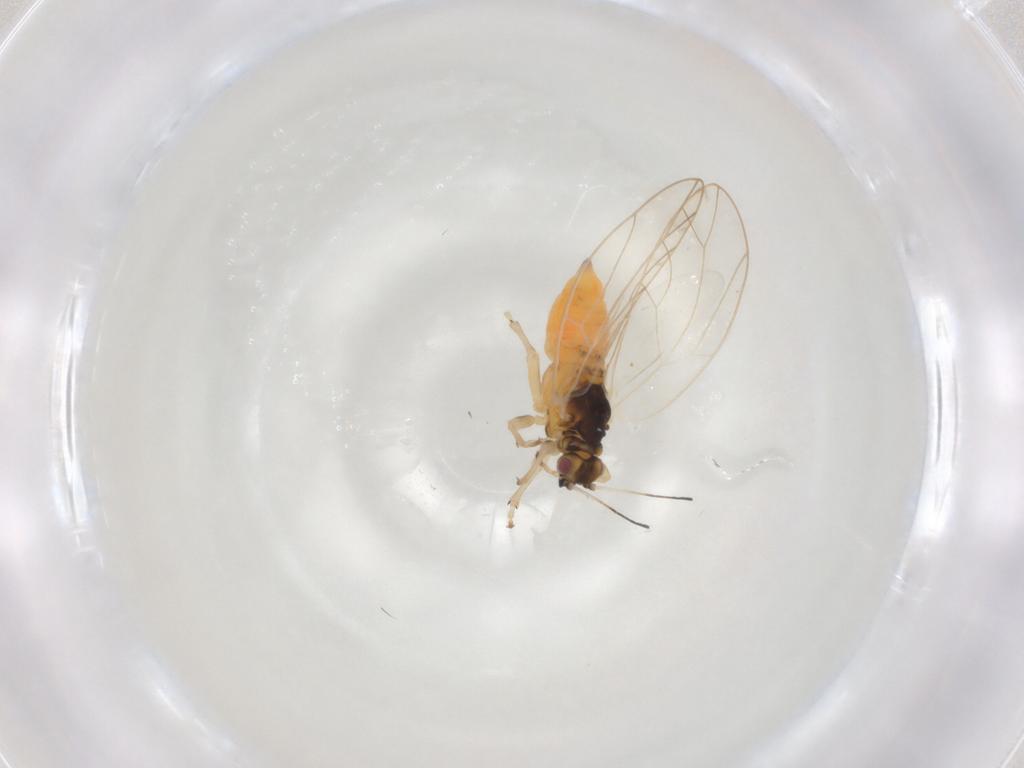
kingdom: Animalia
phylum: Arthropoda
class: Insecta
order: Hemiptera
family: Triozidae
